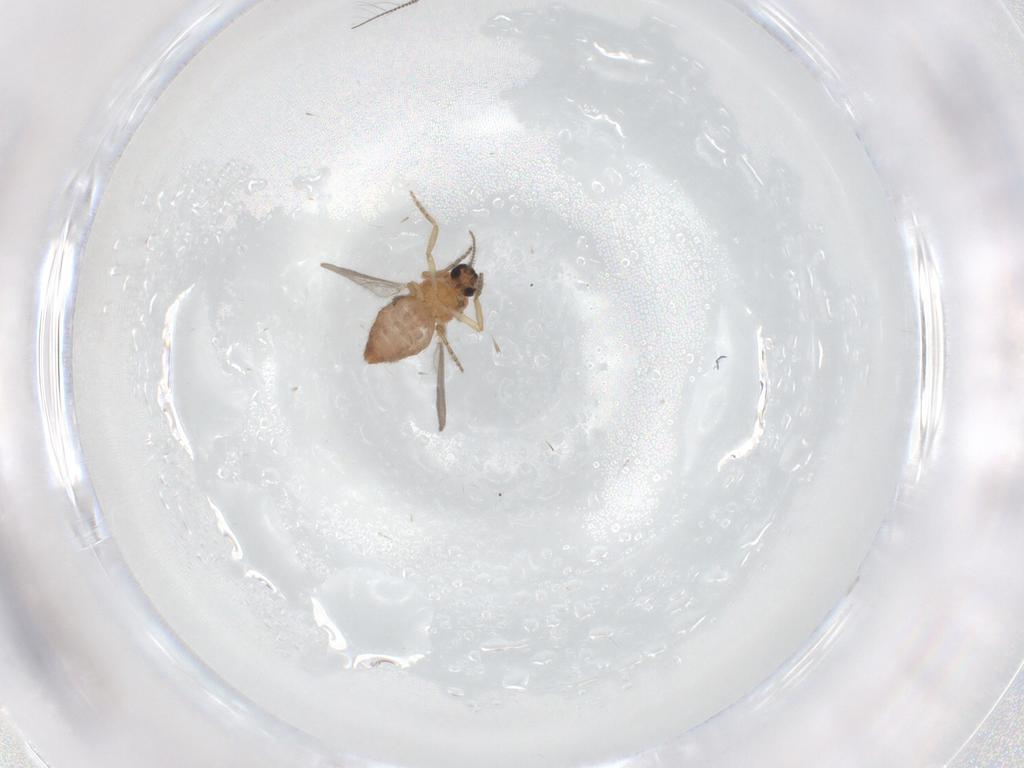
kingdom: Animalia
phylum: Arthropoda
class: Insecta
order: Diptera
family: Ceratopogonidae
